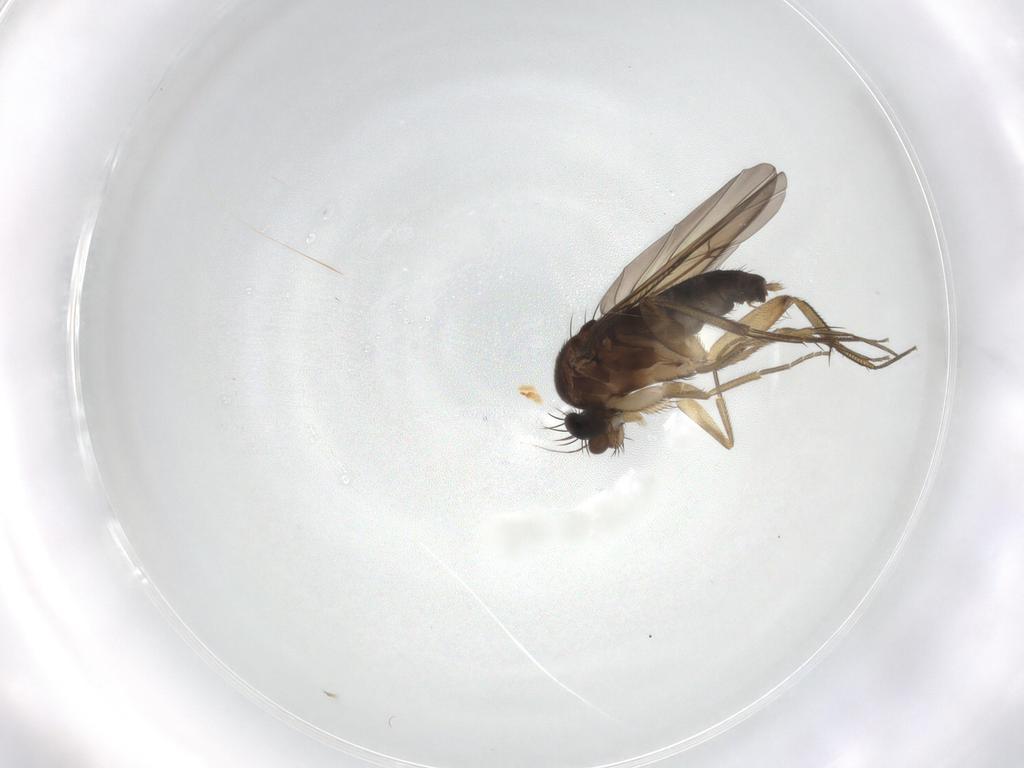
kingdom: Animalia
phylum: Arthropoda
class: Insecta
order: Diptera
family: Phoridae
